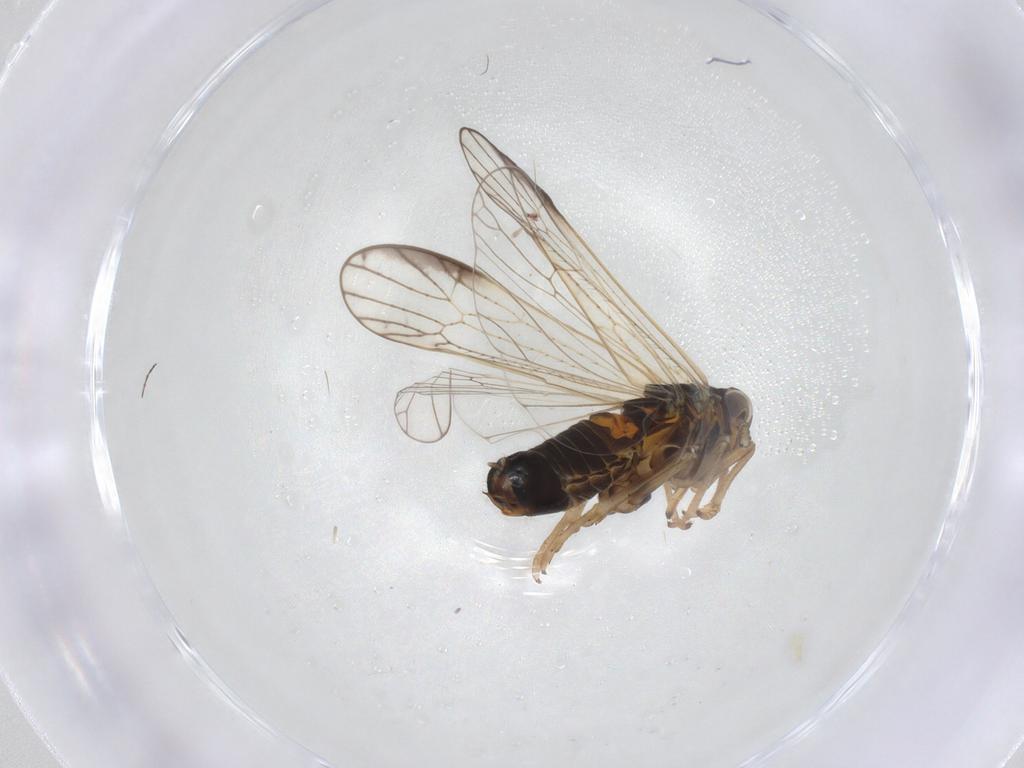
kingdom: Animalia
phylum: Arthropoda
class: Insecta
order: Hemiptera
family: Delphacidae
